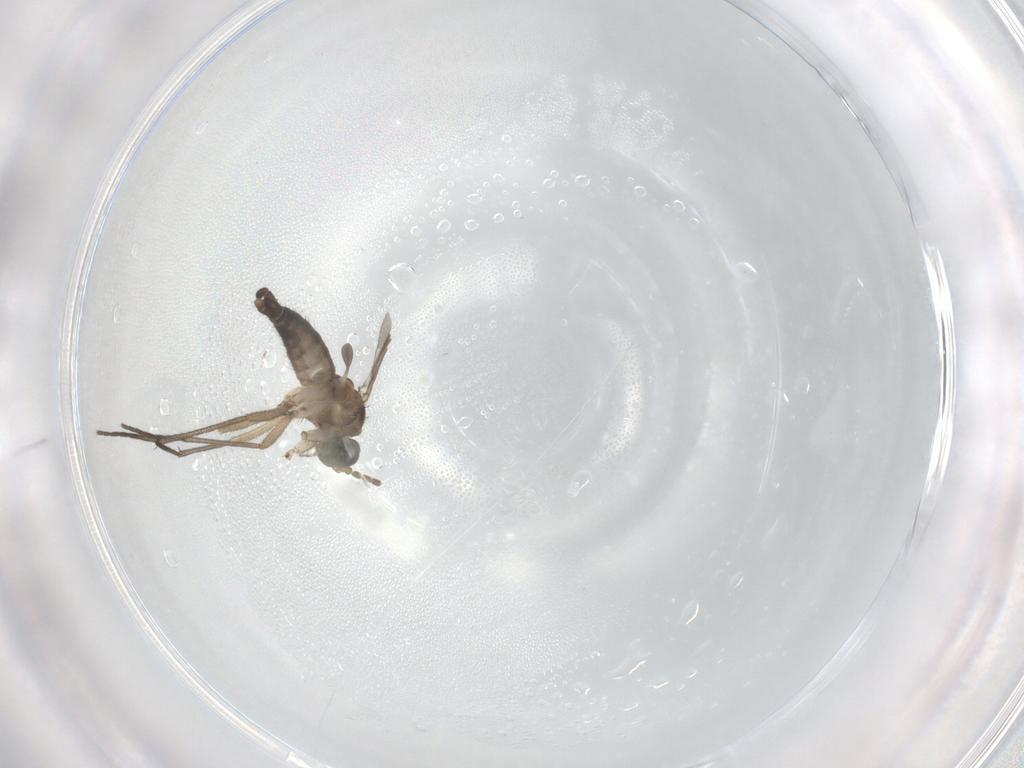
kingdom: Animalia
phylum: Arthropoda
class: Insecta
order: Diptera
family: Sciaridae
